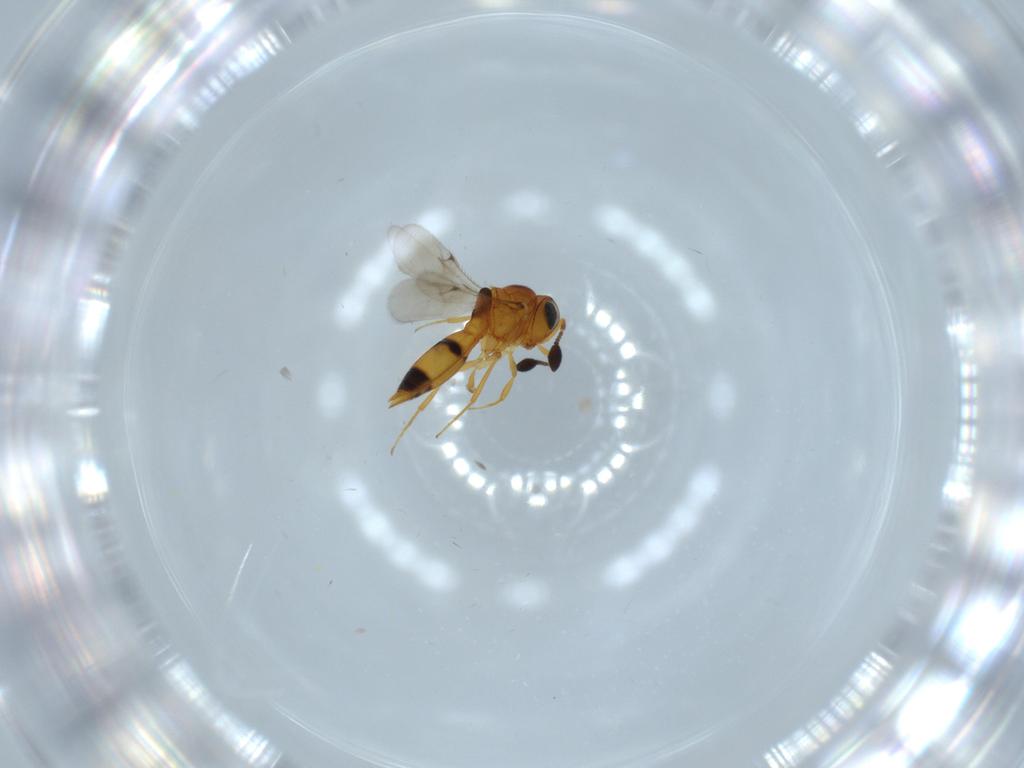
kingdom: Animalia
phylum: Arthropoda
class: Insecta
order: Hymenoptera
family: Scelionidae
